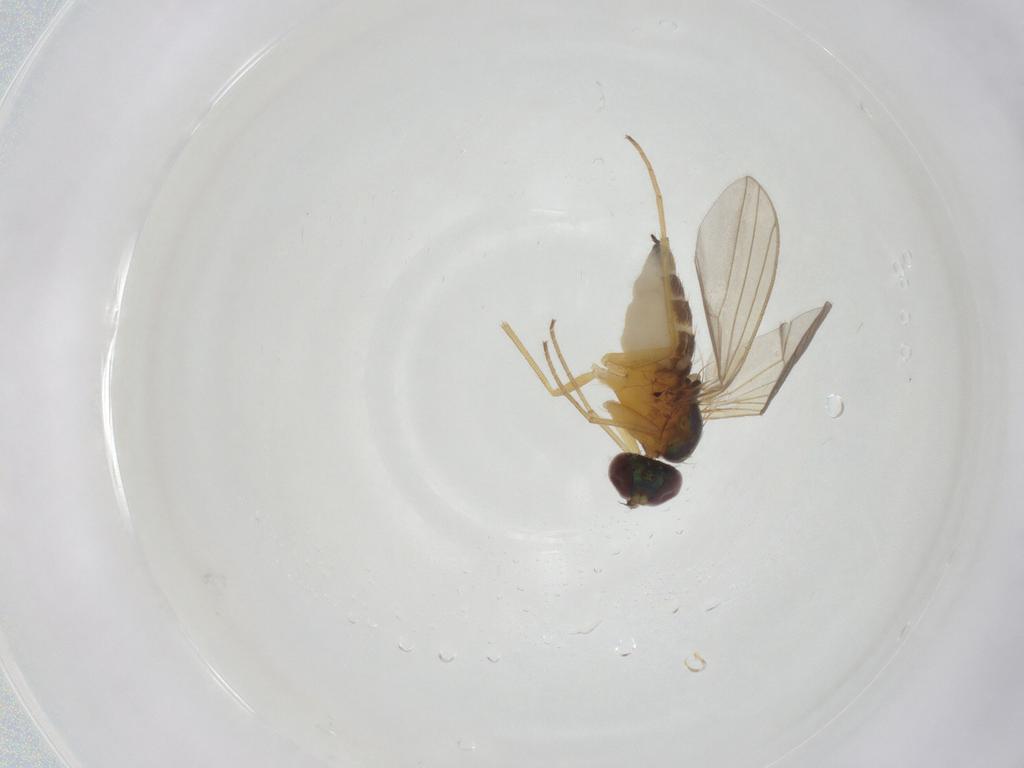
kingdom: Animalia
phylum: Arthropoda
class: Insecta
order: Diptera
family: Dolichopodidae
